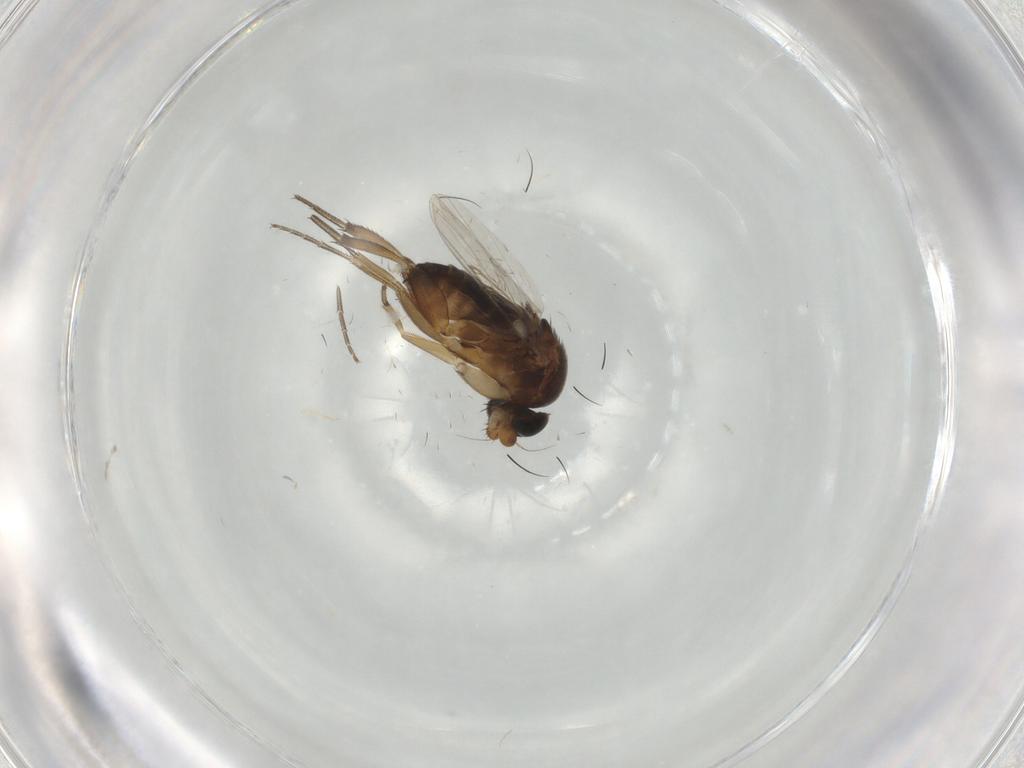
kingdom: Animalia
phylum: Arthropoda
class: Insecta
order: Diptera
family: Phoridae
